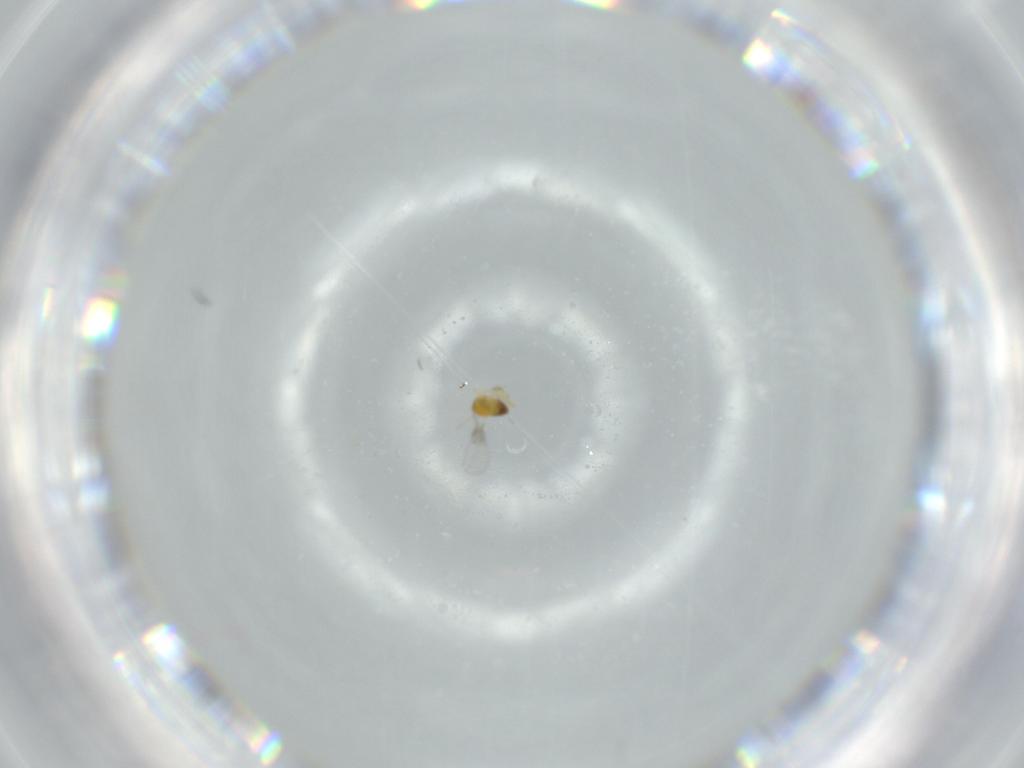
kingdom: Animalia
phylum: Arthropoda
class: Insecta
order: Hymenoptera
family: Trichogrammatidae
